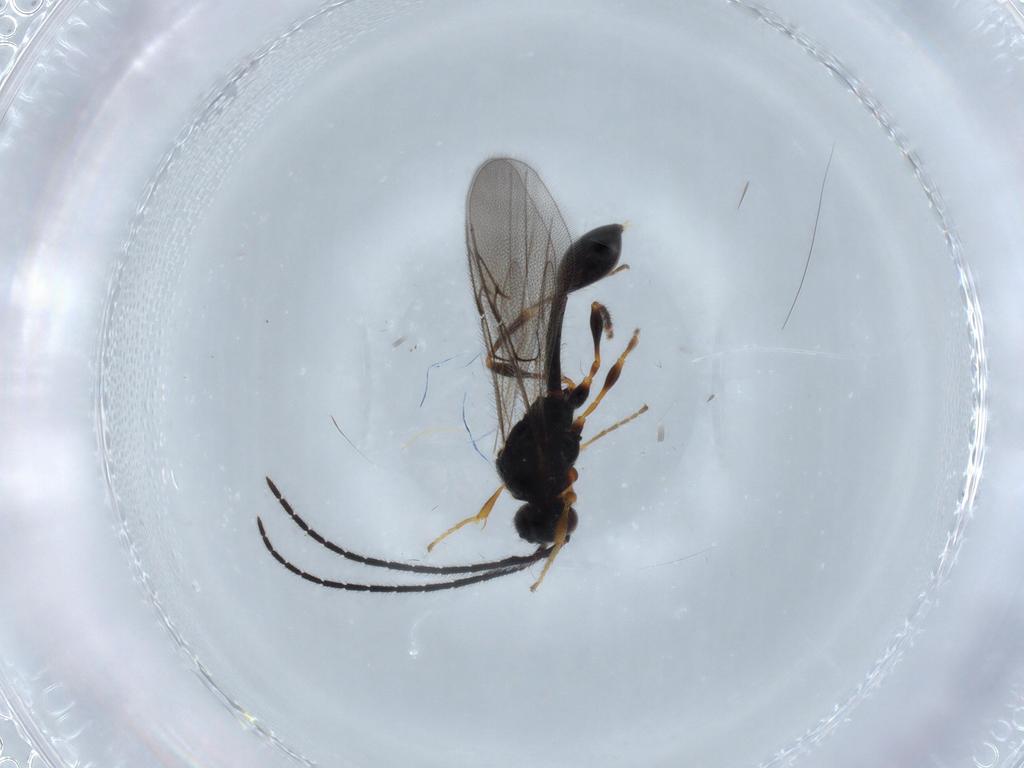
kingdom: Animalia
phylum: Arthropoda
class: Insecta
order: Hymenoptera
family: Diapriidae
